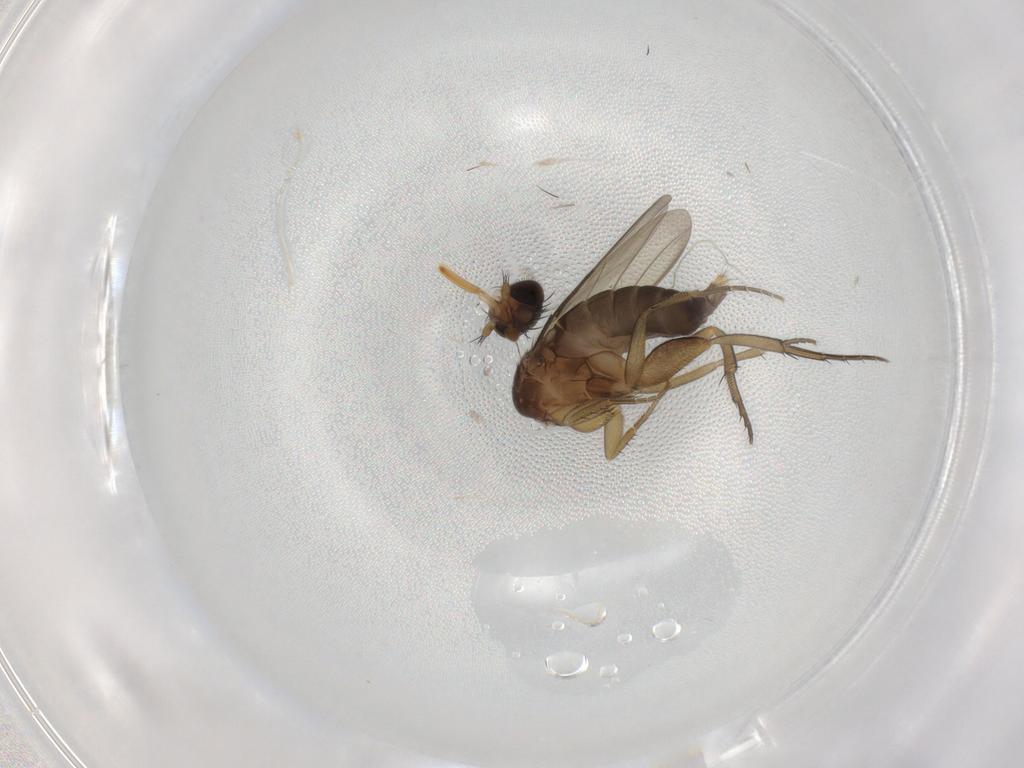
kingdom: Animalia
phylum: Arthropoda
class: Insecta
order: Diptera
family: Phoridae
